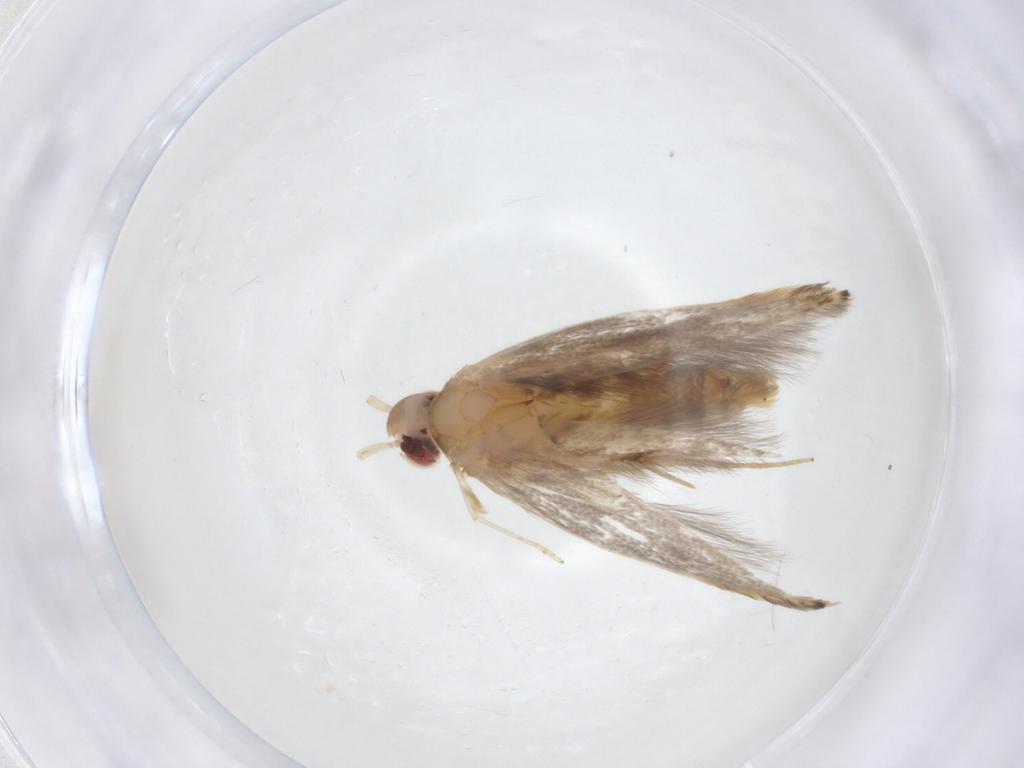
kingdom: Animalia
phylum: Arthropoda
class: Insecta
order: Lepidoptera
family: Cosmopterigidae
